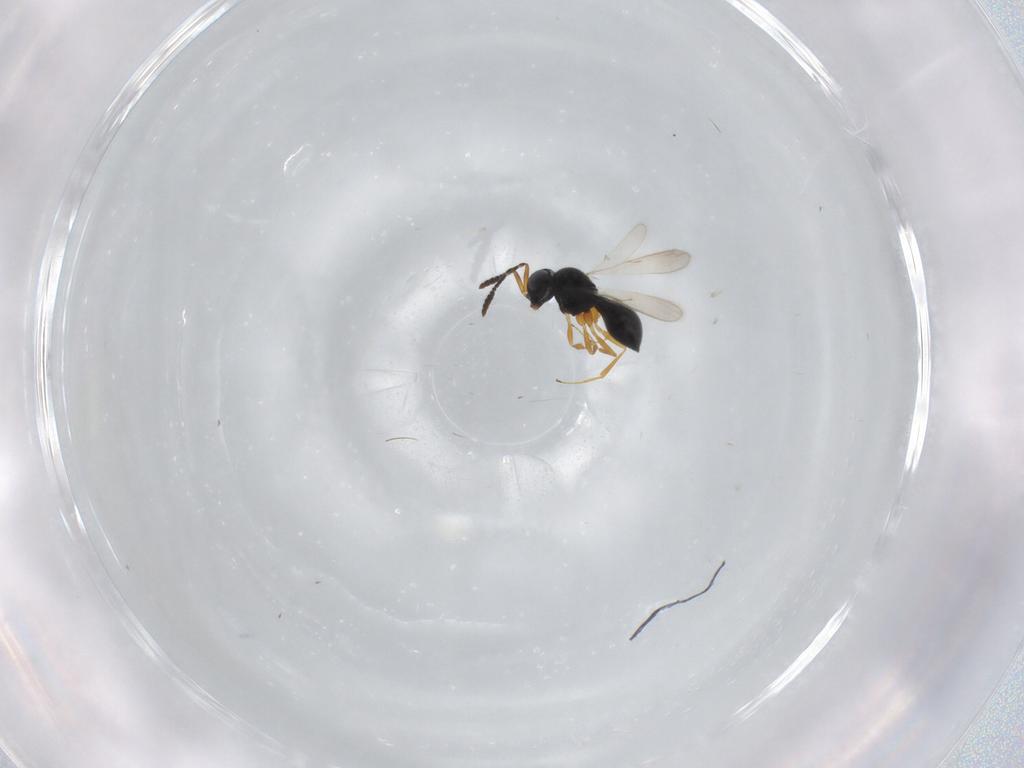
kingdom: Animalia
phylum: Arthropoda
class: Insecta
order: Hymenoptera
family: Scelionidae
